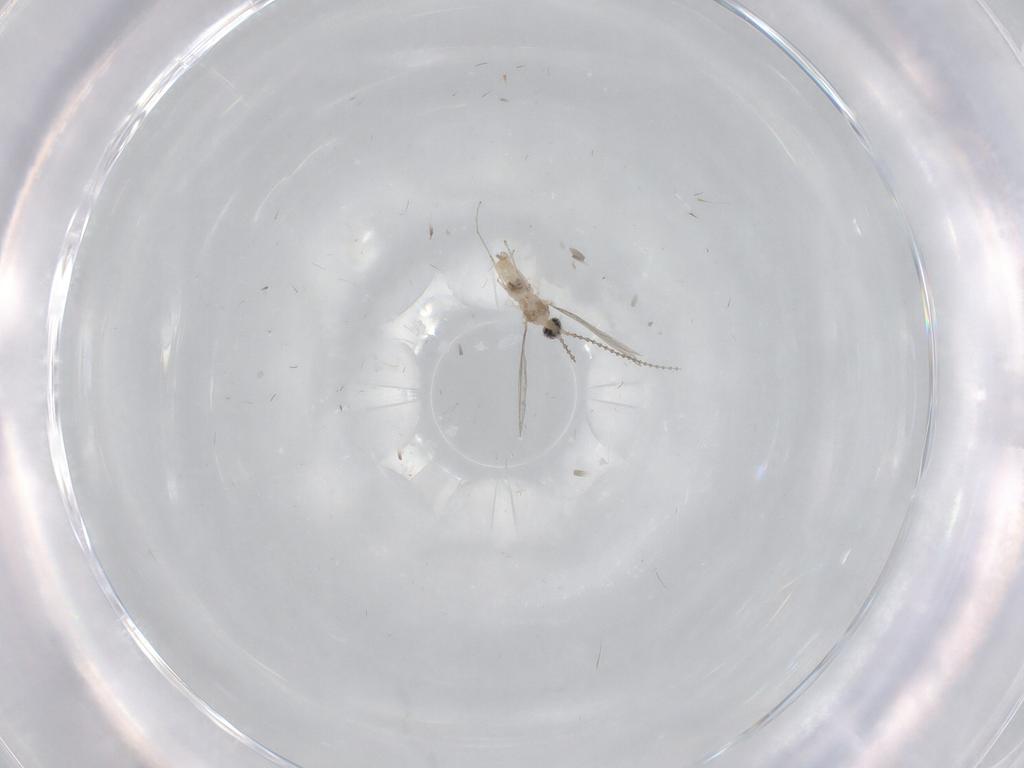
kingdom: Animalia
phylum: Arthropoda
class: Insecta
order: Diptera
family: Cecidomyiidae
